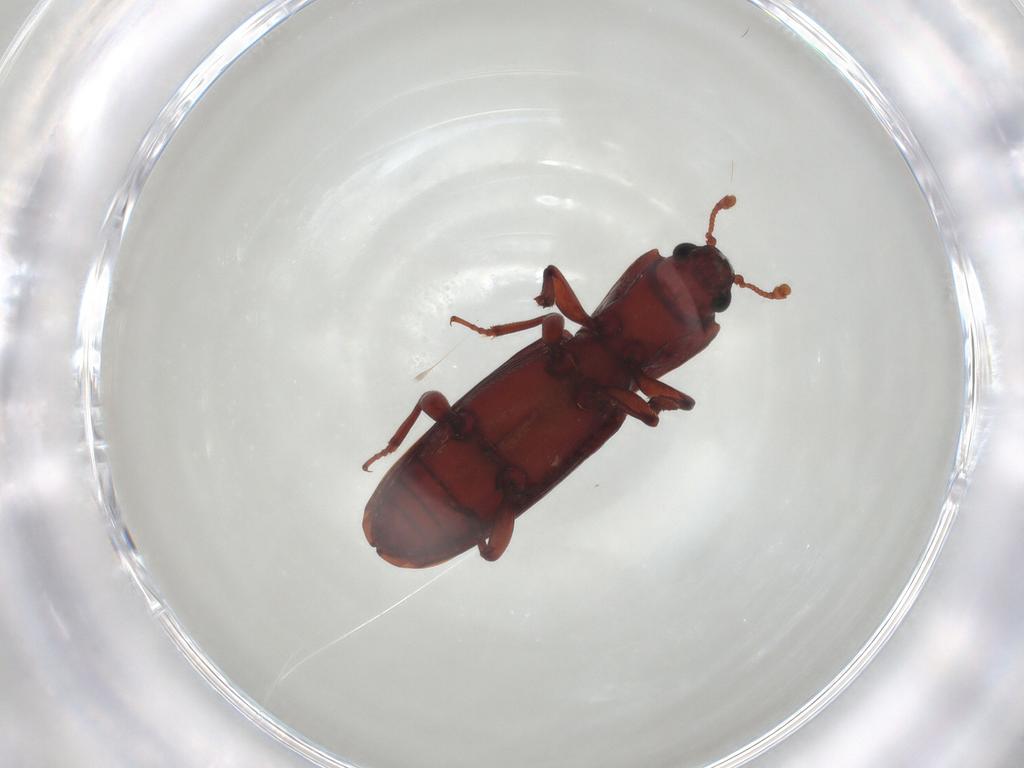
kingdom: Animalia
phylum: Arthropoda
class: Insecta
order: Coleoptera
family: Bothrideridae
